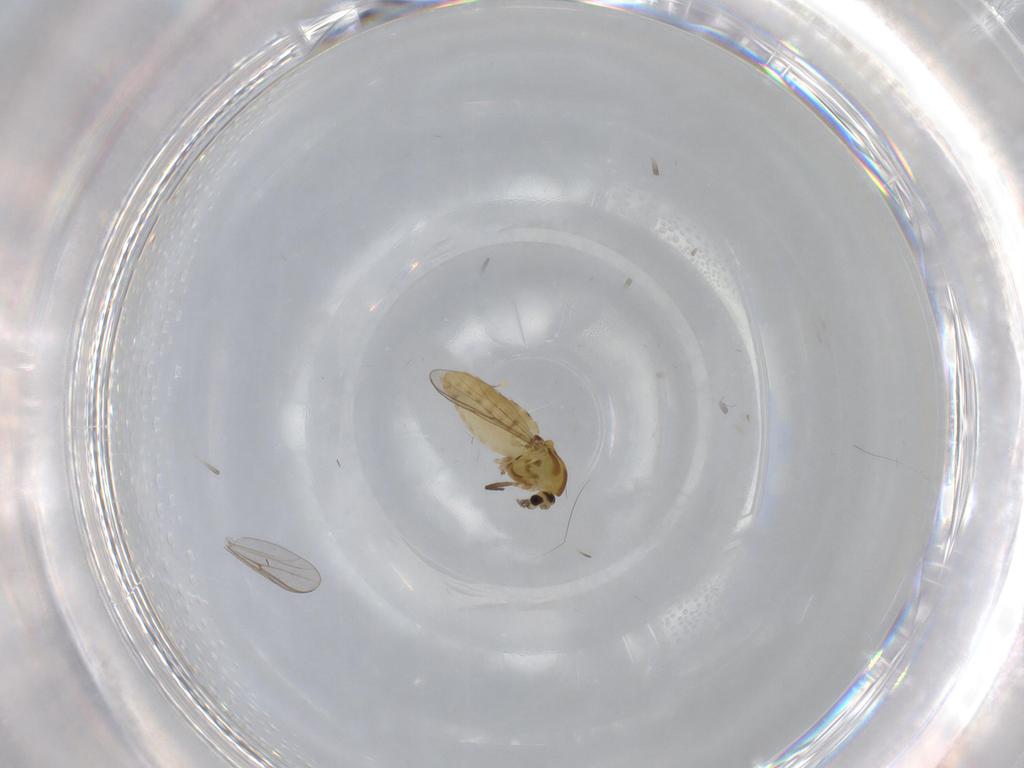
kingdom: Animalia
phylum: Arthropoda
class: Insecta
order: Diptera
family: Chironomidae
